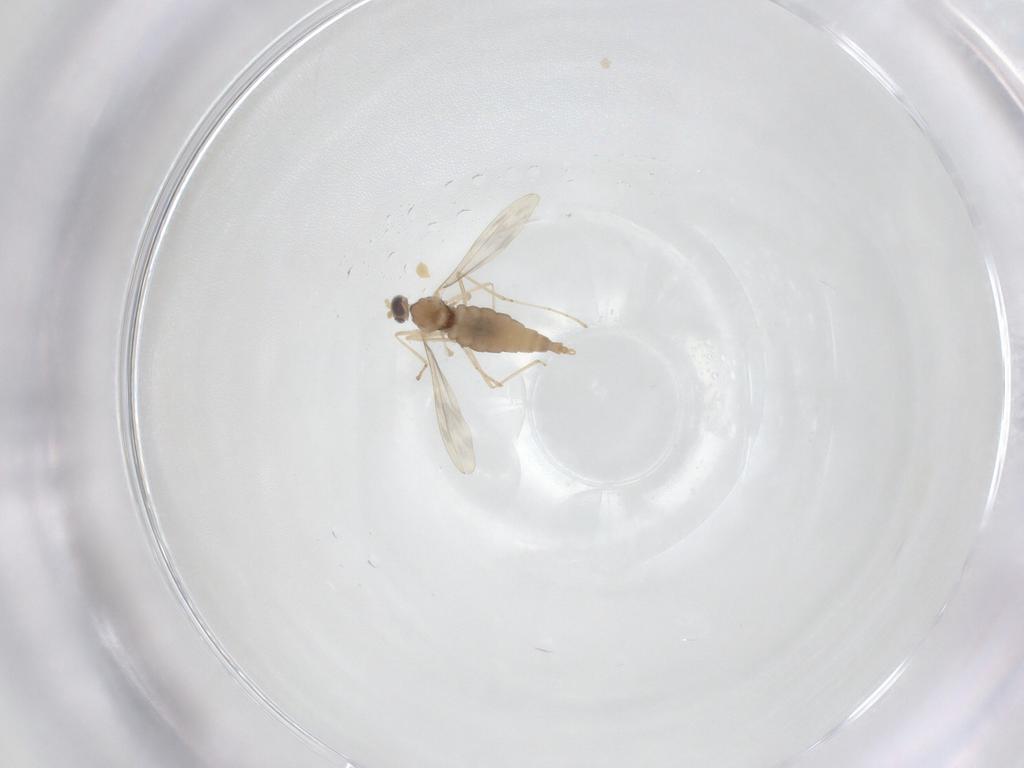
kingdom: Animalia
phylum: Arthropoda
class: Insecta
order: Diptera
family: Cecidomyiidae
